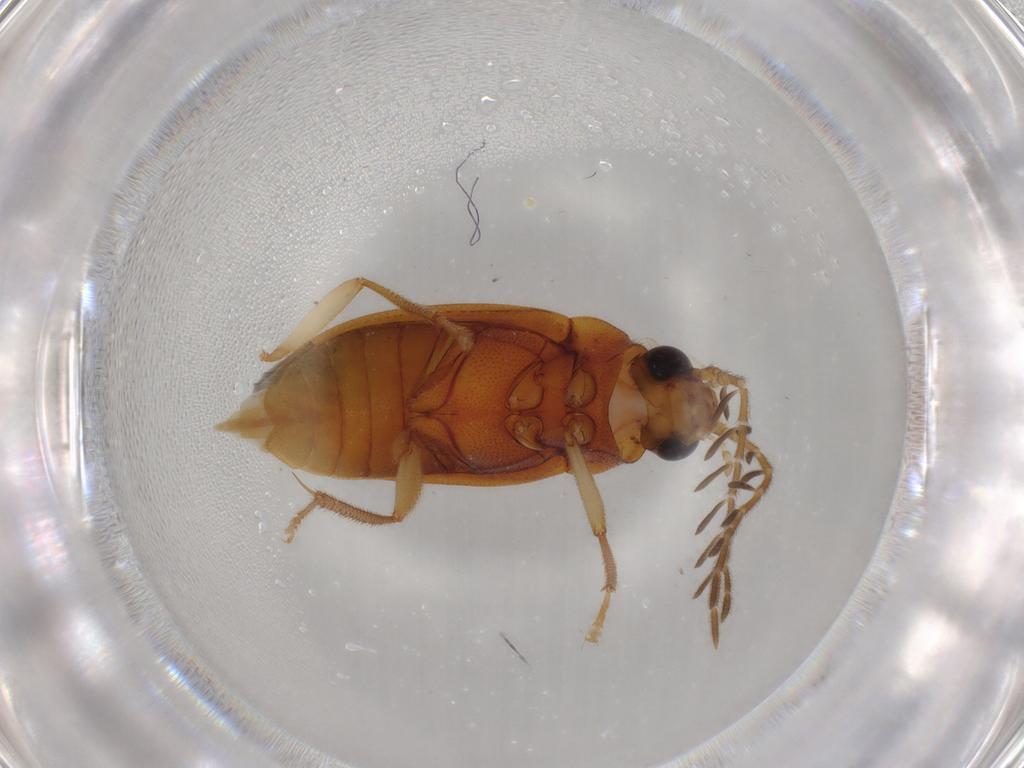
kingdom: Animalia
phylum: Arthropoda
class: Insecta
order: Coleoptera
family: Ptilodactylidae
